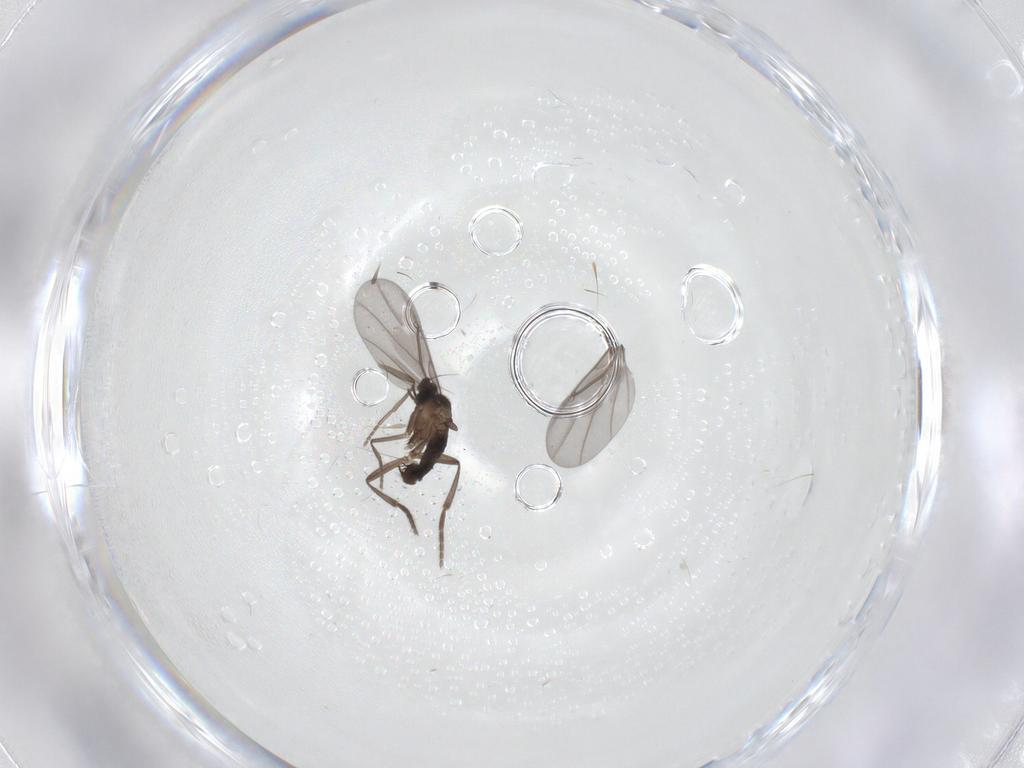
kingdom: Animalia
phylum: Arthropoda
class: Insecta
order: Diptera
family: Phoridae
